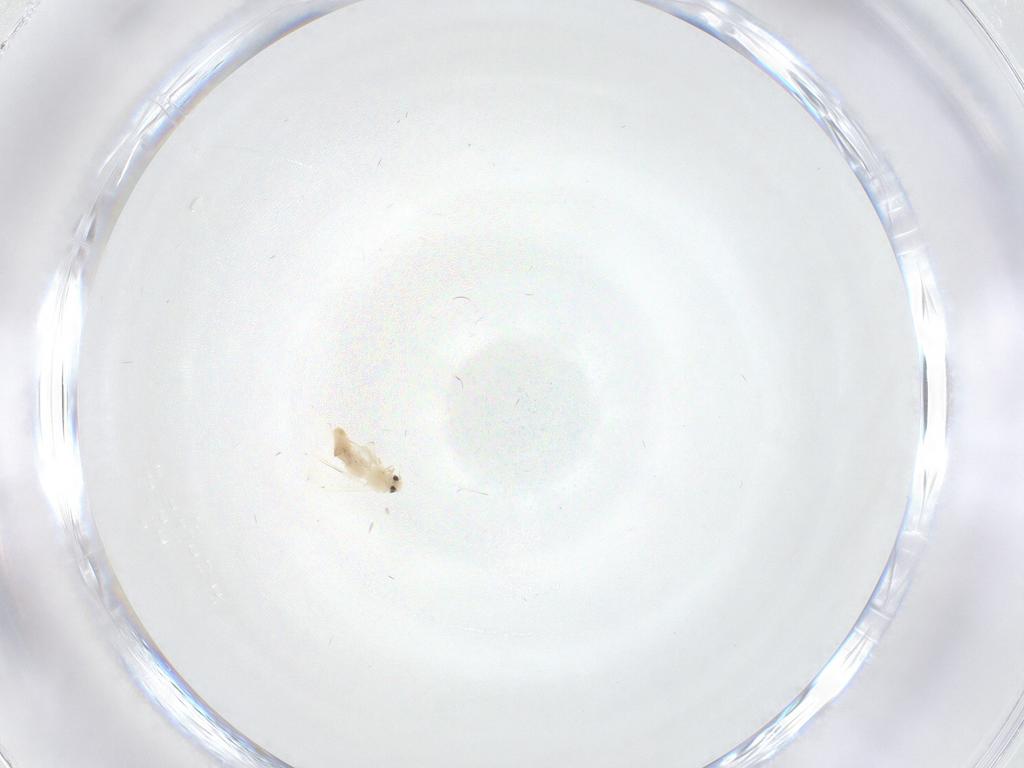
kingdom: Animalia
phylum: Arthropoda
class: Insecta
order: Hemiptera
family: Aleyrodidae
